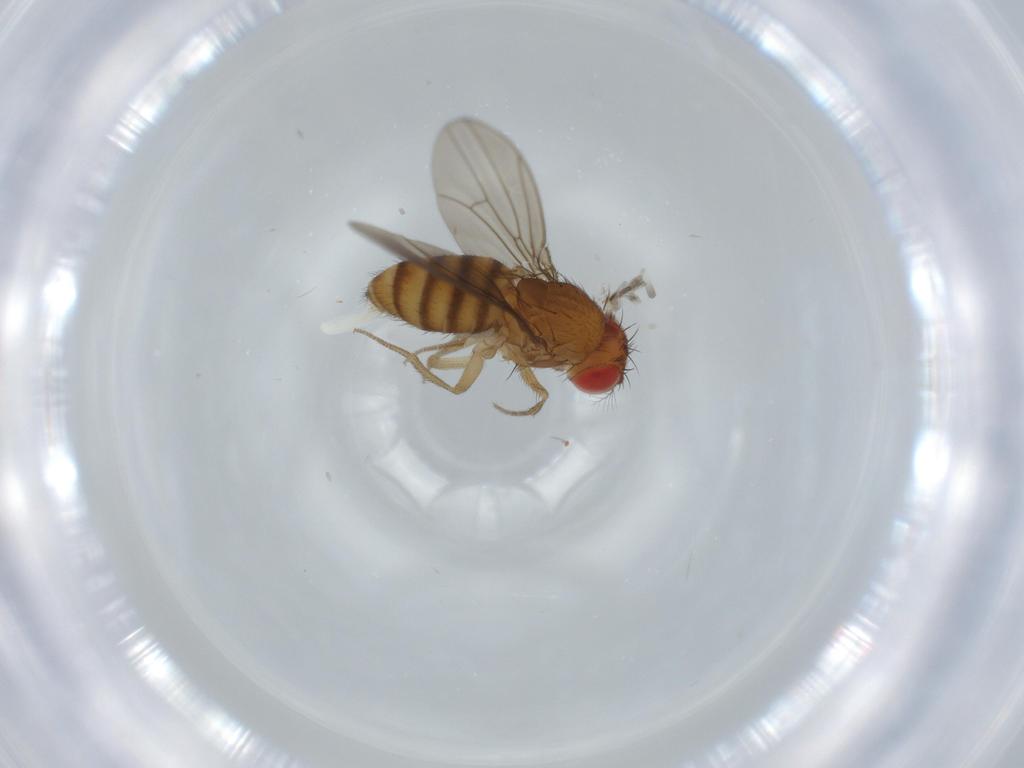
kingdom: Animalia
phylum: Arthropoda
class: Insecta
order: Diptera
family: Drosophilidae
